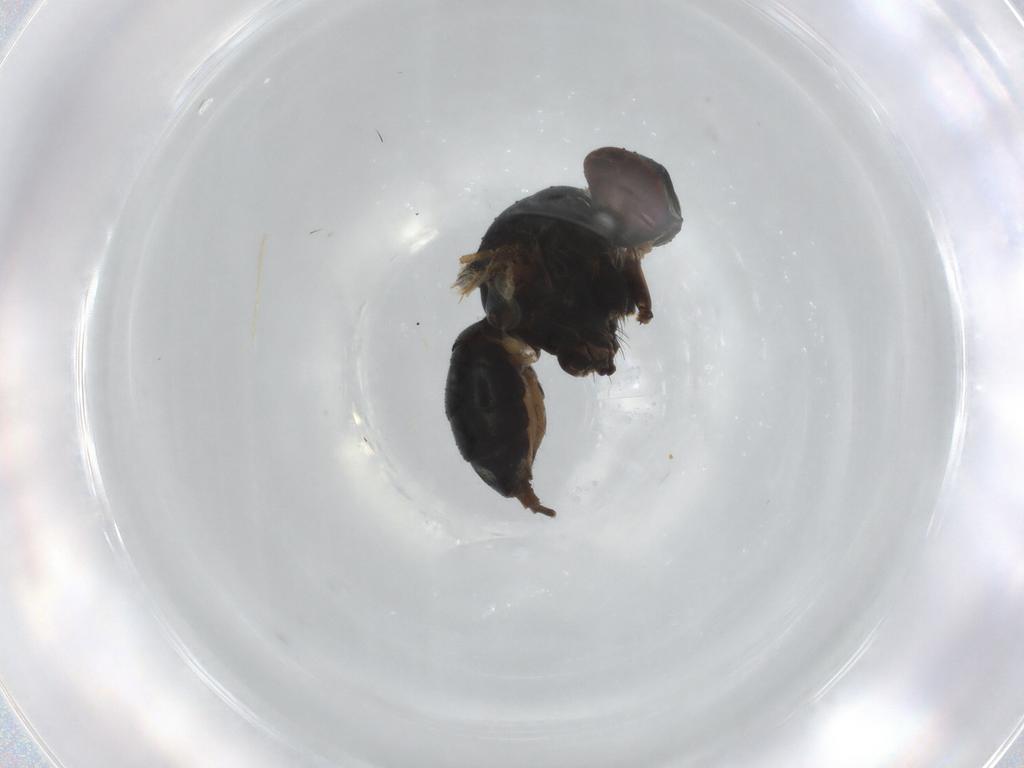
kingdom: Animalia
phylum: Arthropoda
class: Insecta
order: Diptera
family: Muscidae
